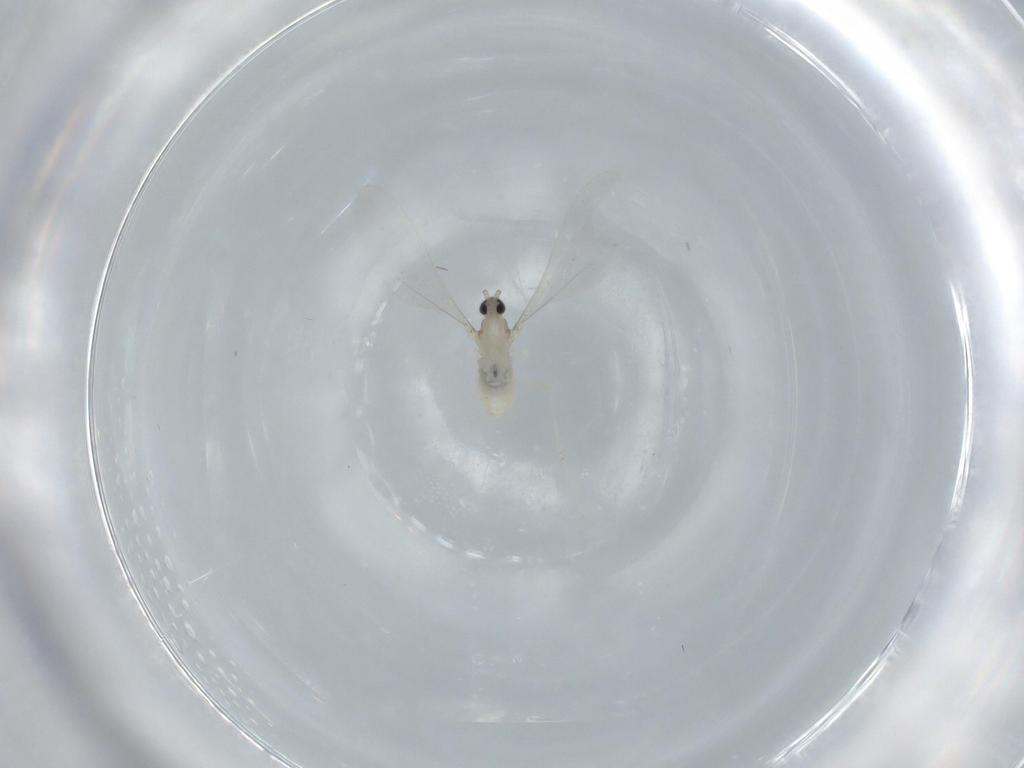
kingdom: Animalia
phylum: Arthropoda
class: Insecta
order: Diptera
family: Cecidomyiidae
